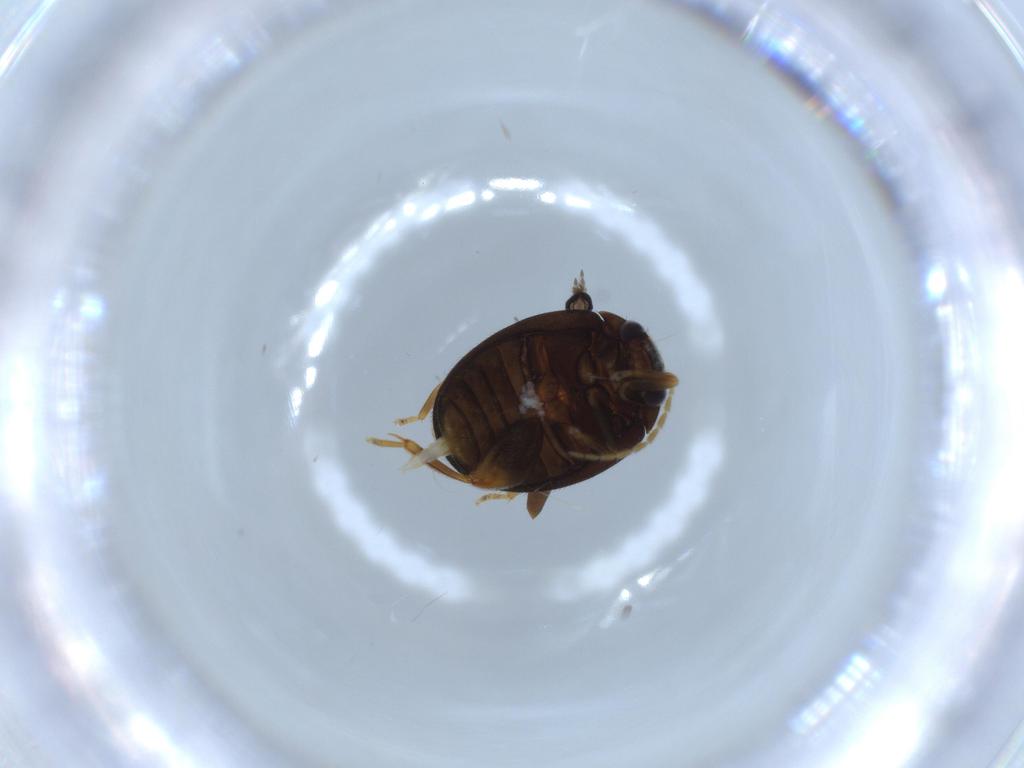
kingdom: Animalia
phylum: Arthropoda
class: Insecta
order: Coleoptera
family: Scirtidae
